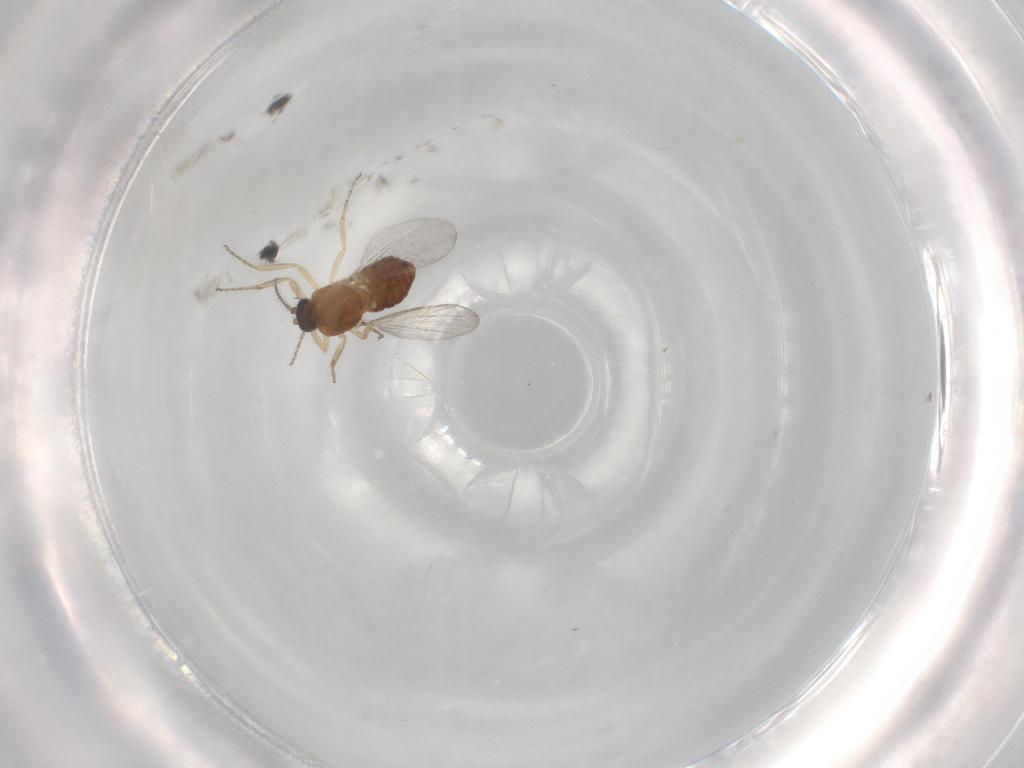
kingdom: Animalia
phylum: Arthropoda
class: Insecta
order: Diptera
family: Ceratopogonidae
